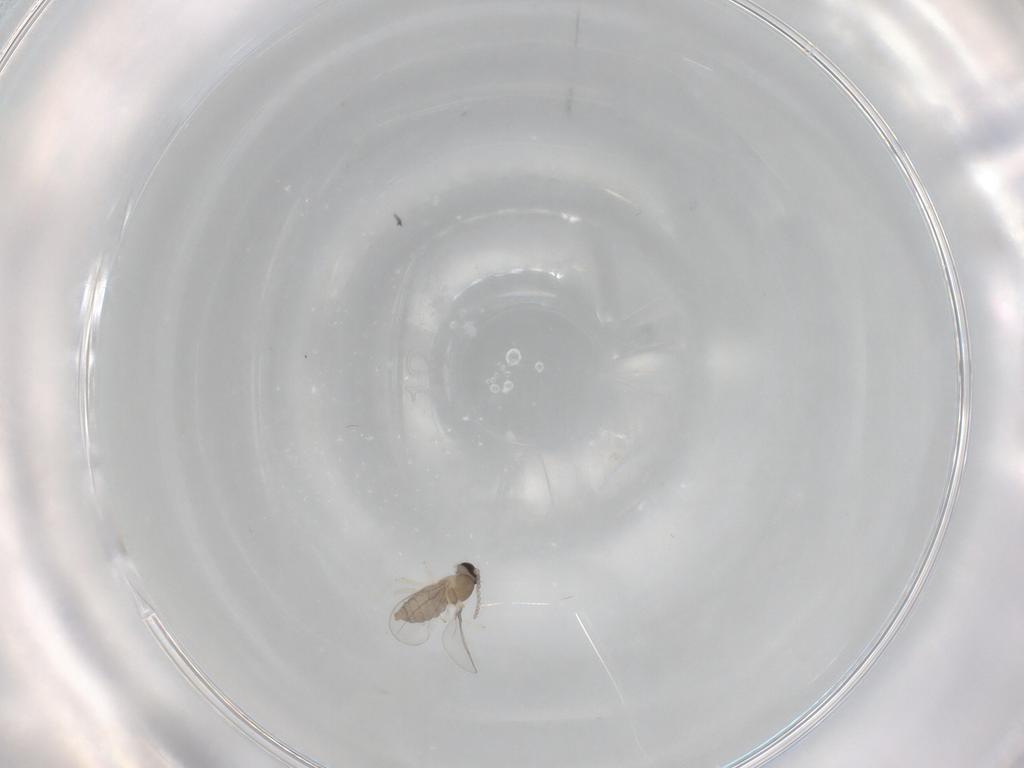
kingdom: Animalia
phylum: Arthropoda
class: Insecta
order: Diptera
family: Cecidomyiidae
